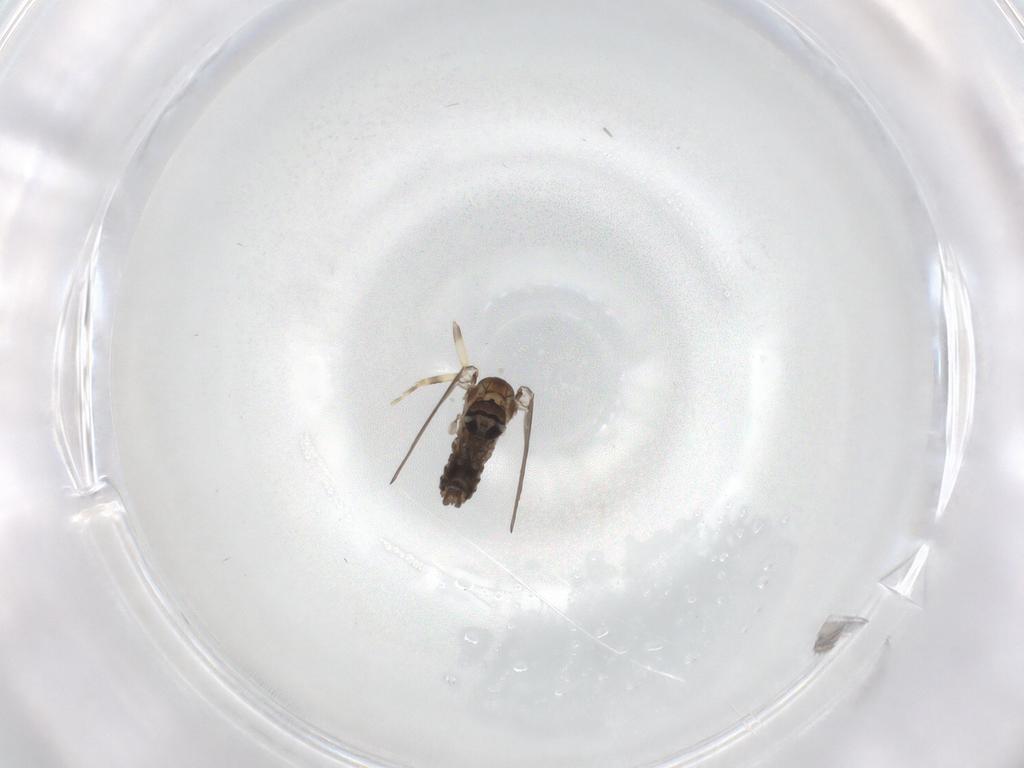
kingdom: Animalia
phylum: Arthropoda
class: Insecta
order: Diptera
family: Psychodidae
